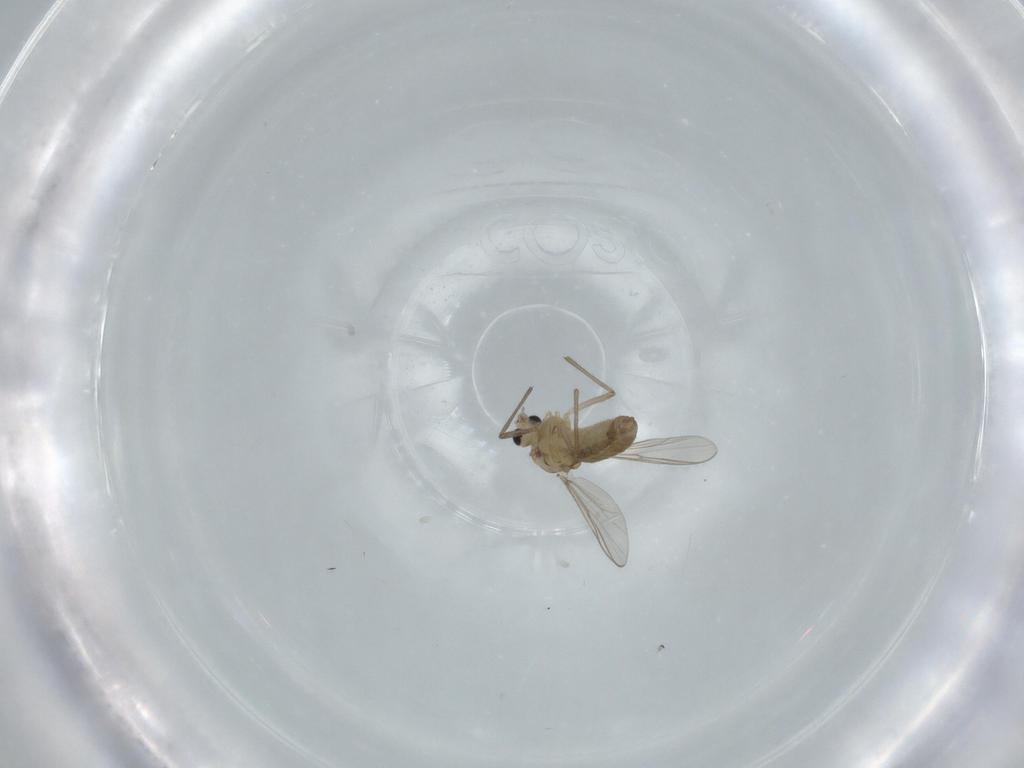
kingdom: Animalia
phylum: Arthropoda
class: Insecta
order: Diptera
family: Chironomidae
